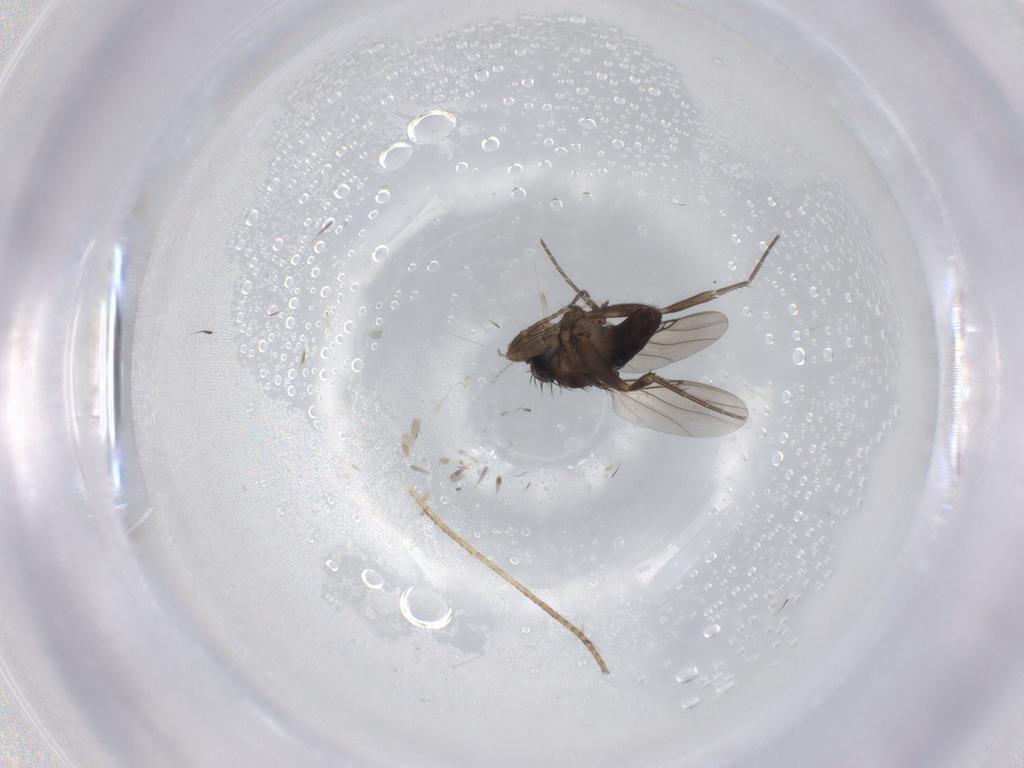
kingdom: Animalia
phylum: Arthropoda
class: Insecta
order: Diptera
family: Phoridae
